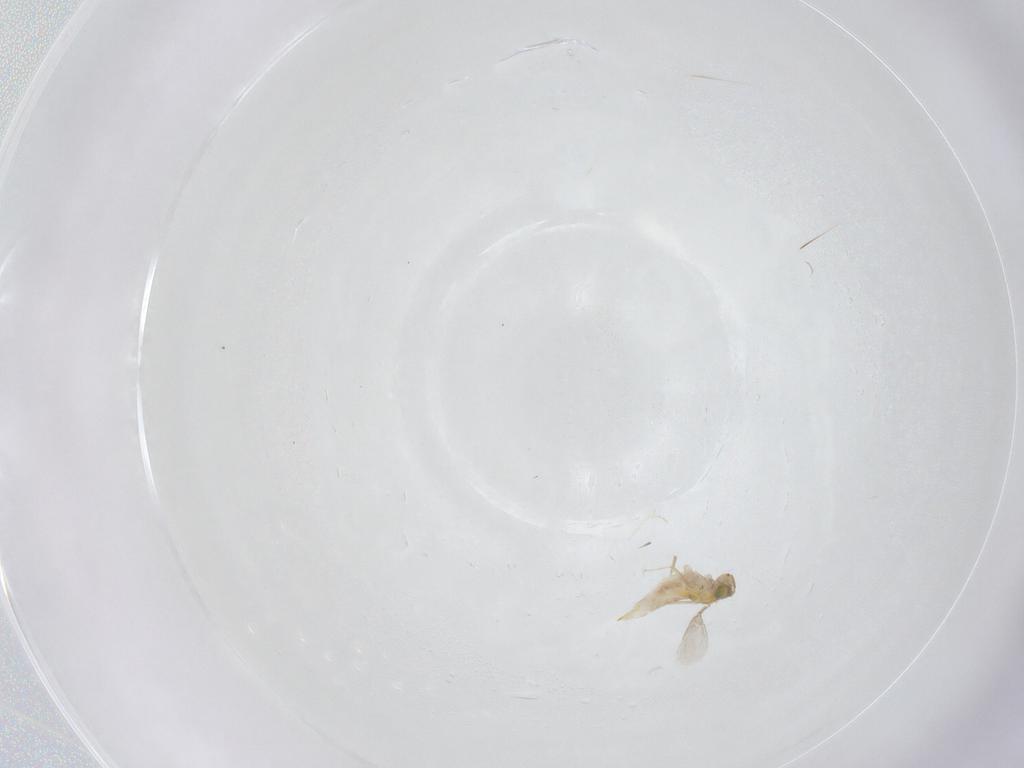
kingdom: Animalia
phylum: Arthropoda
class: Insecta
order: Hymenoptera
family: Aphelinidae
